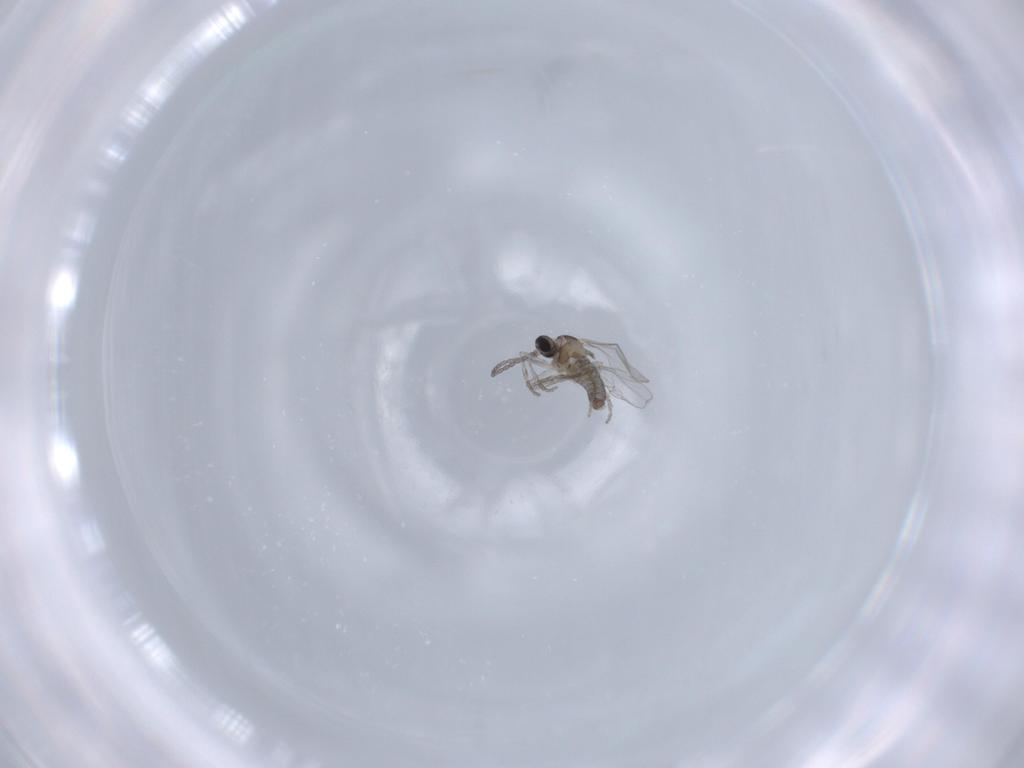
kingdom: Animalia
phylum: Arthropoda
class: Insecta
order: Diptera
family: Cecidomyiidae
